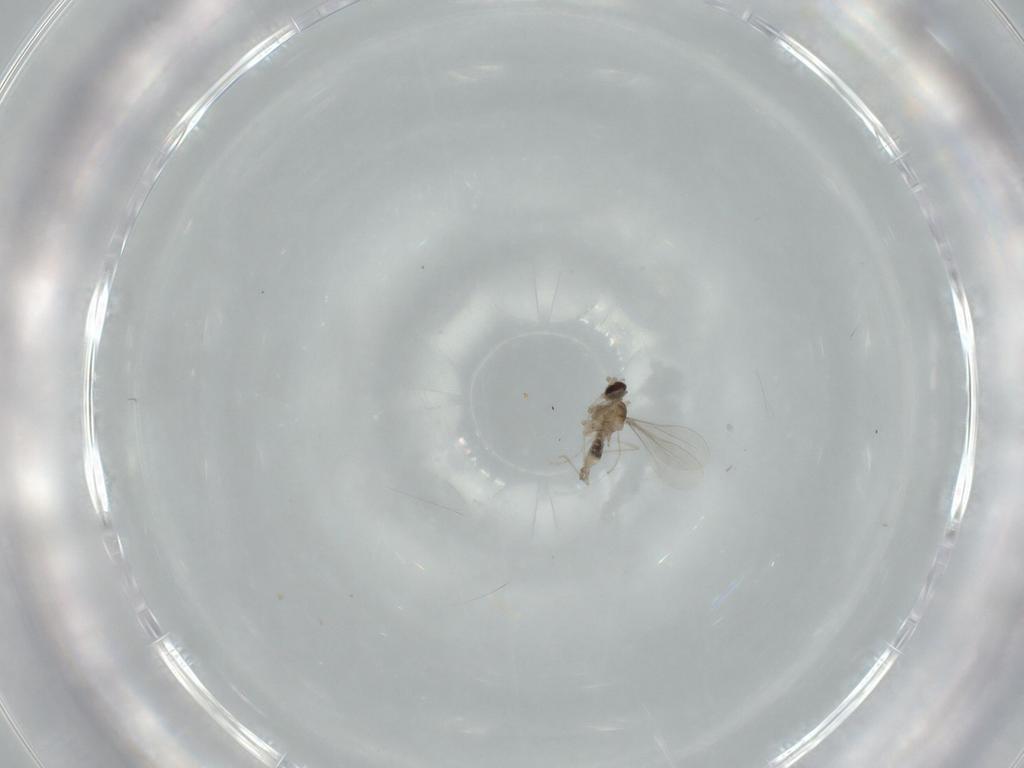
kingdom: Animalia
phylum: Arthropoda
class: Insecta
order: Diptera
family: Cecidomyiidae
